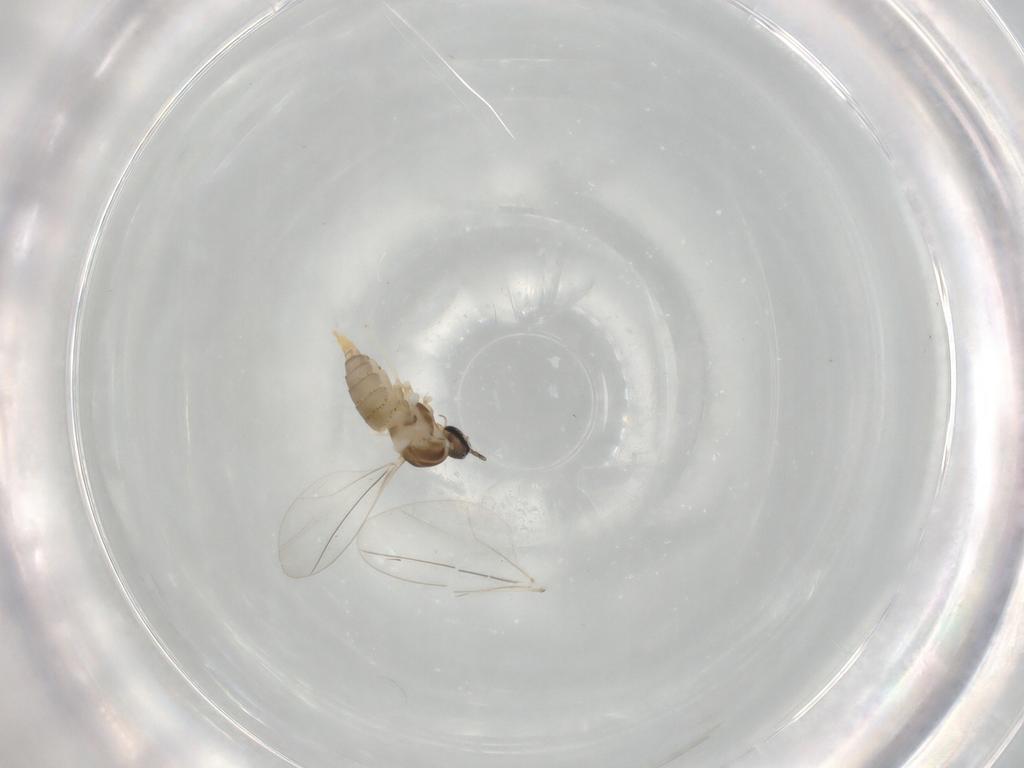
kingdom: Animalia
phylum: Arthropoda
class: Insecta
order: Diptera
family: Cecidomyiidae
